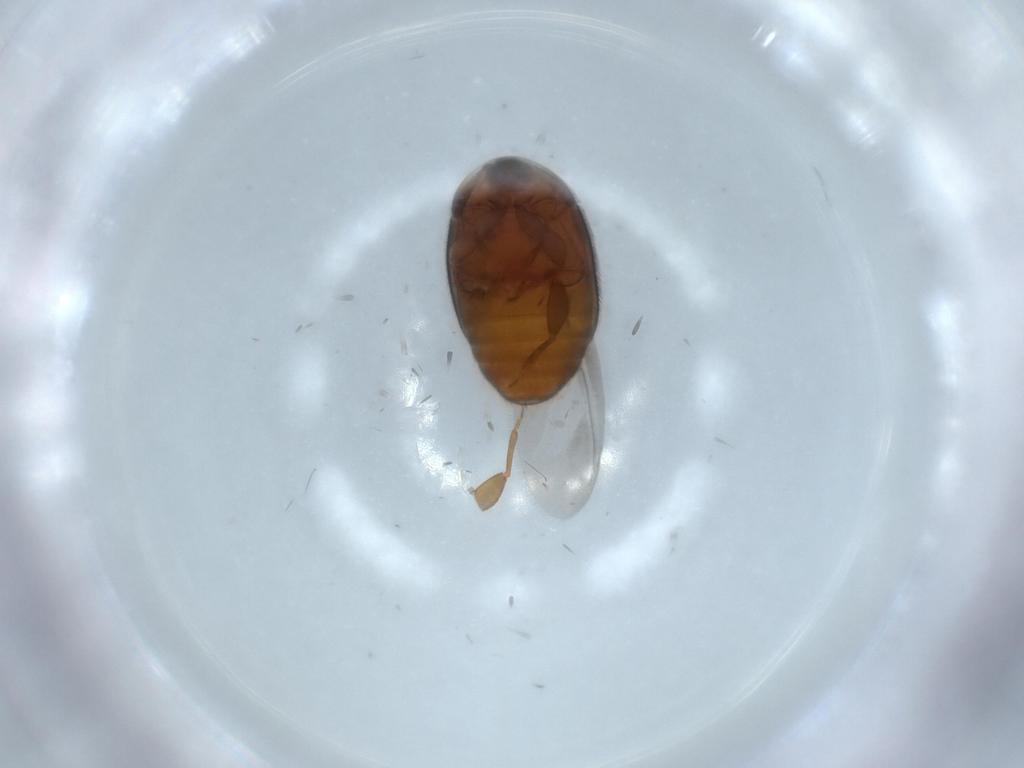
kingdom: Animalia
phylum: Arthropoda
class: Insecta
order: Coleoptera
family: Corylophidae
